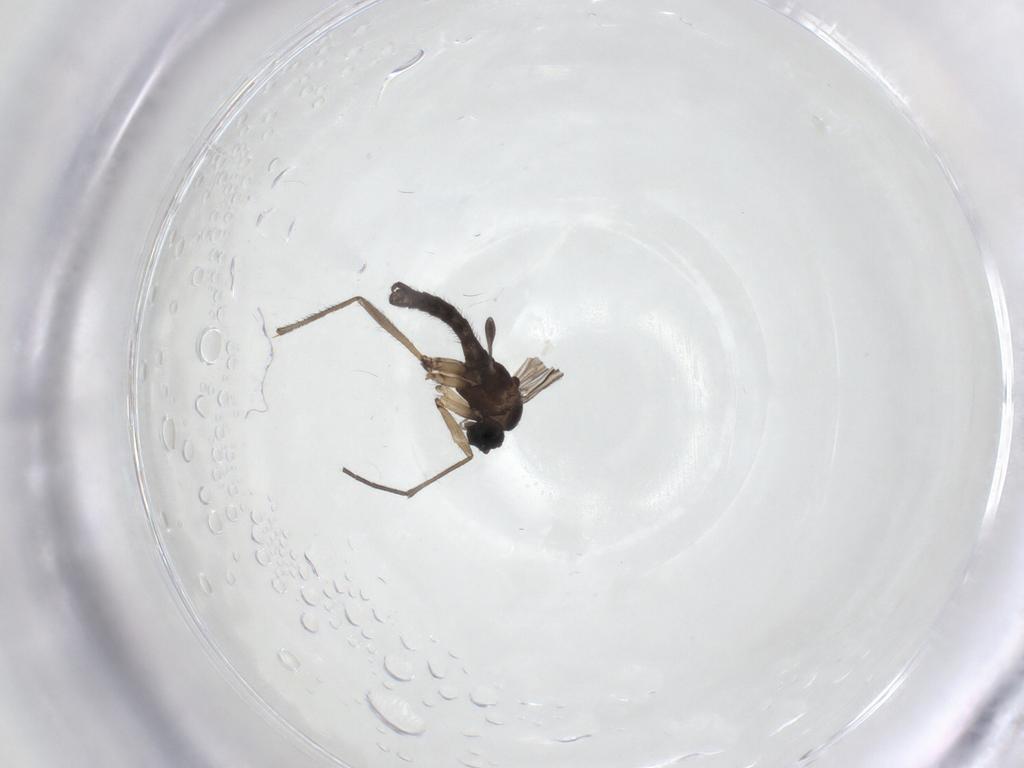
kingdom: Animalia
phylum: Arthropoda
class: Insecta
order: Diptera
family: Sciaridae
